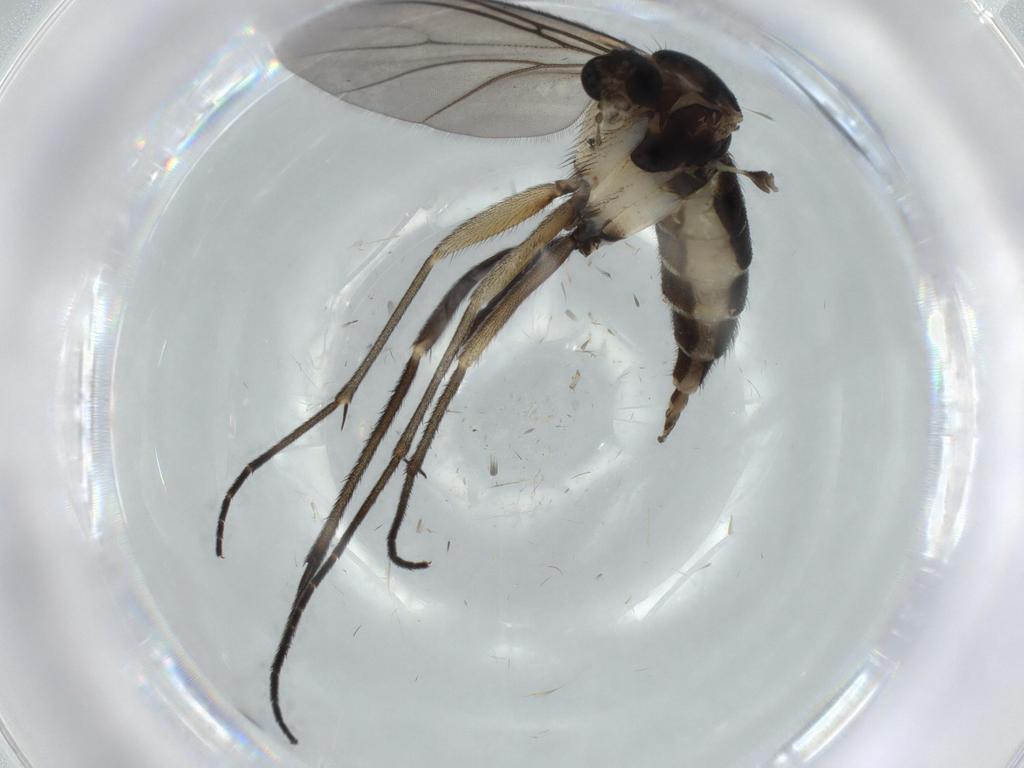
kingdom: Animalia
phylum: Arthropoda
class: Insecta
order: Diptera
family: Sciaridae
